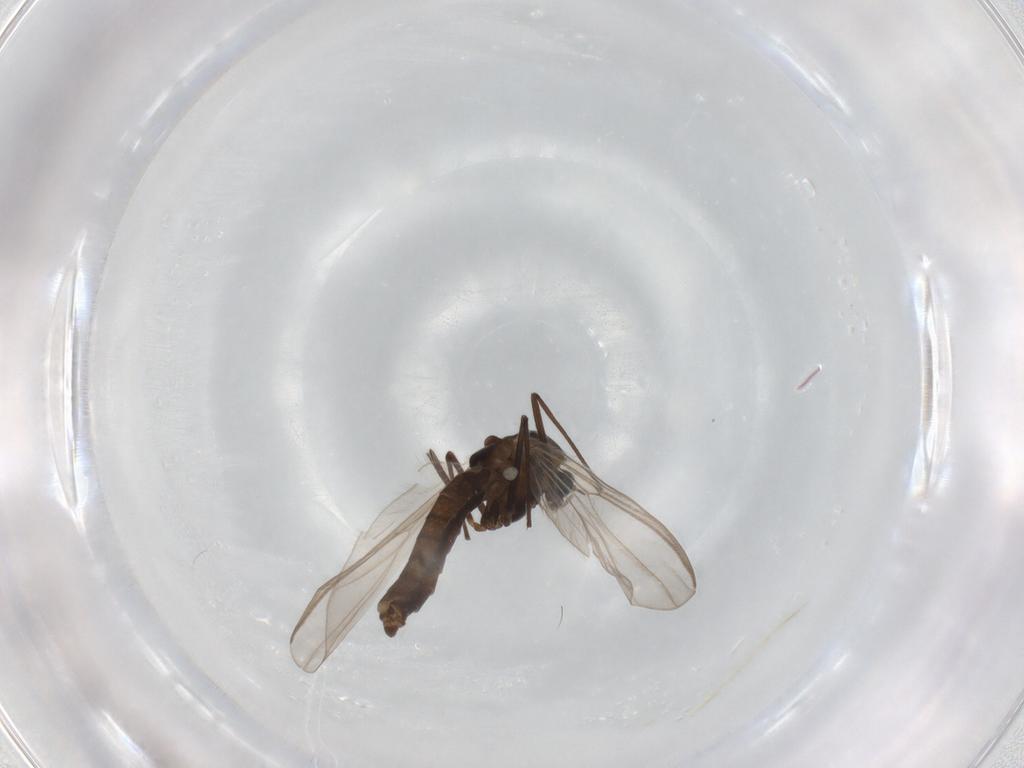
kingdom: Animalia
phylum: Arthropoda
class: Insecta
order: Diptera
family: Chironomidae
